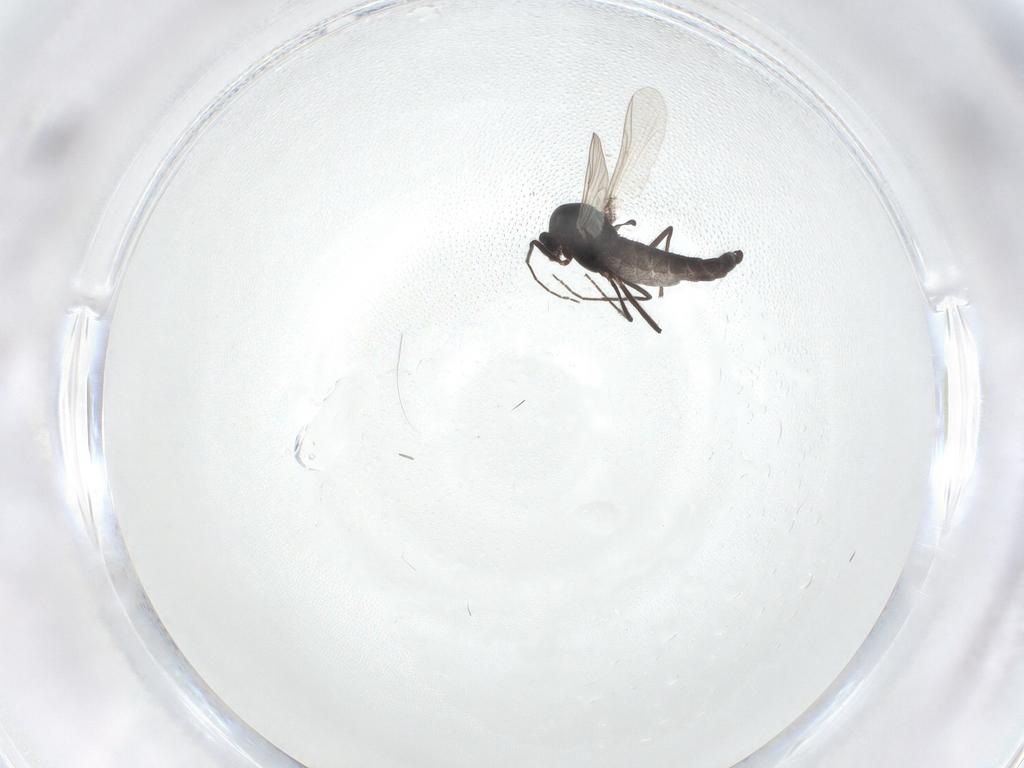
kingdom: Animalia
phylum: Arthropoda
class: Insecta
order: Diptera
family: Chironomidae
